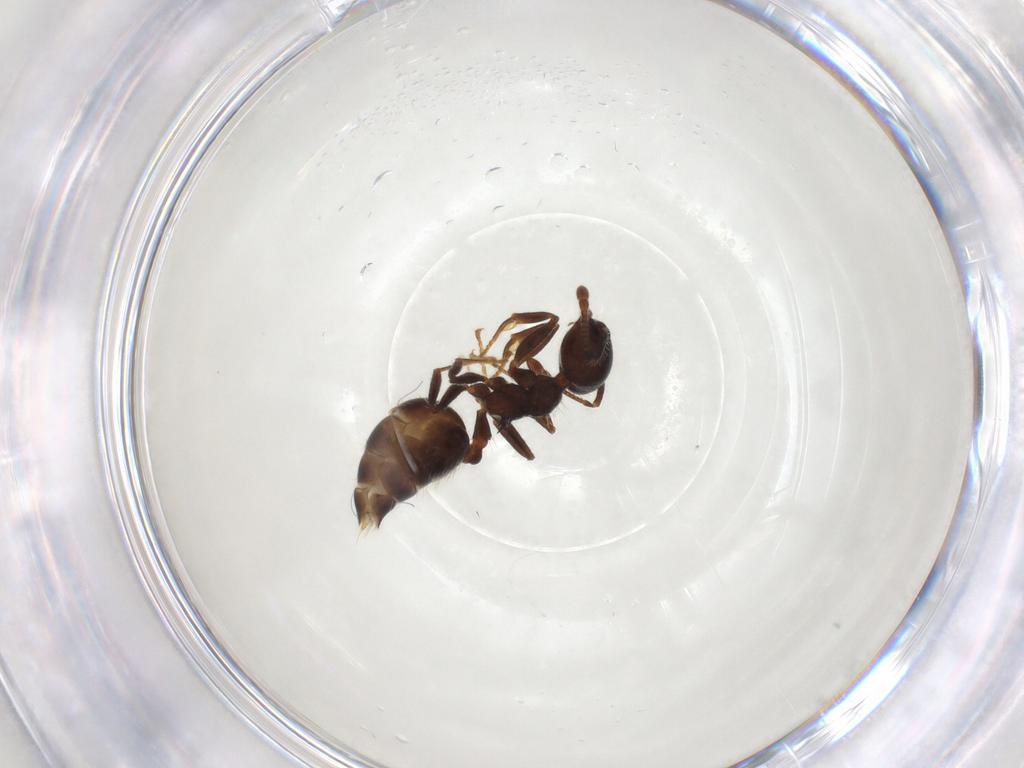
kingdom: Animalia
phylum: Arthropoda
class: Insecta
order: Hymenoptera
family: Formicidae
